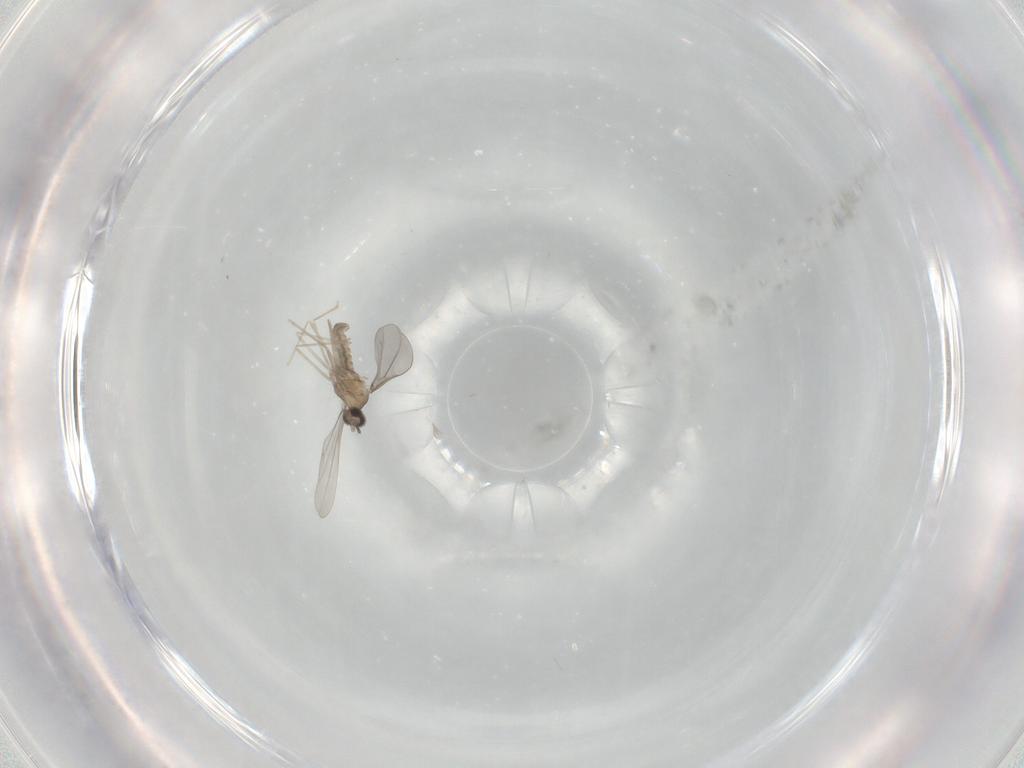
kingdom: Animalia
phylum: Arthropoda
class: Insecta
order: Diptera
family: Cecidomyiidae
